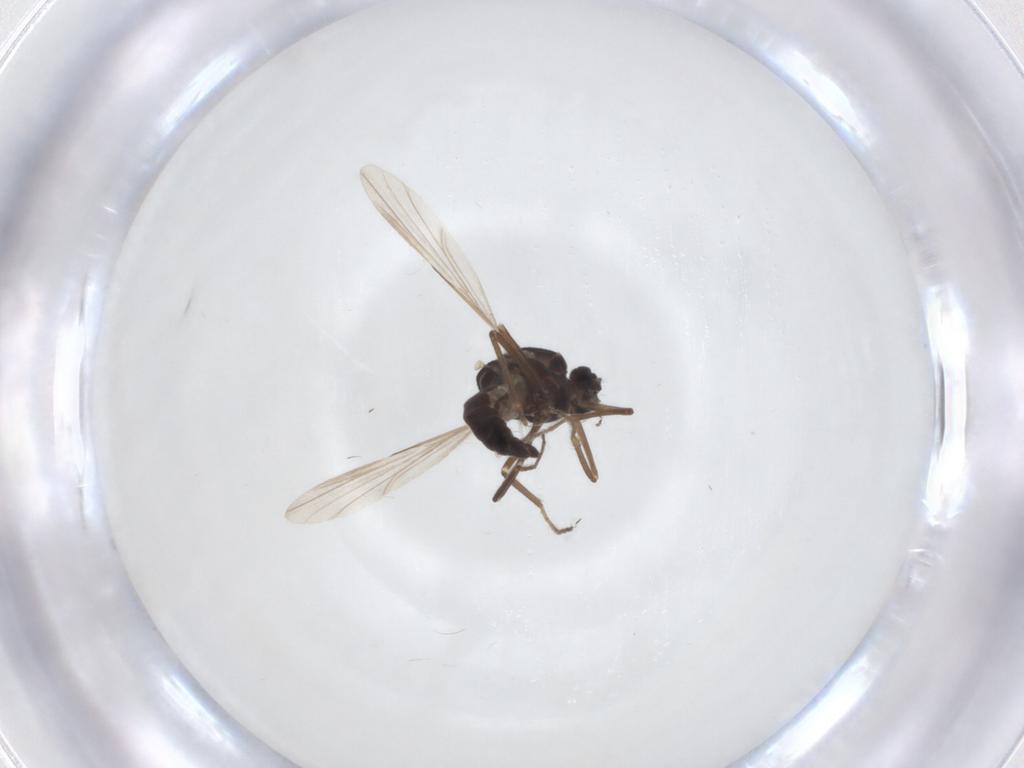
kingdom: Animalia
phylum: Arthropoda
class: Insecta
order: Diptera
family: Ceratopogonidae
